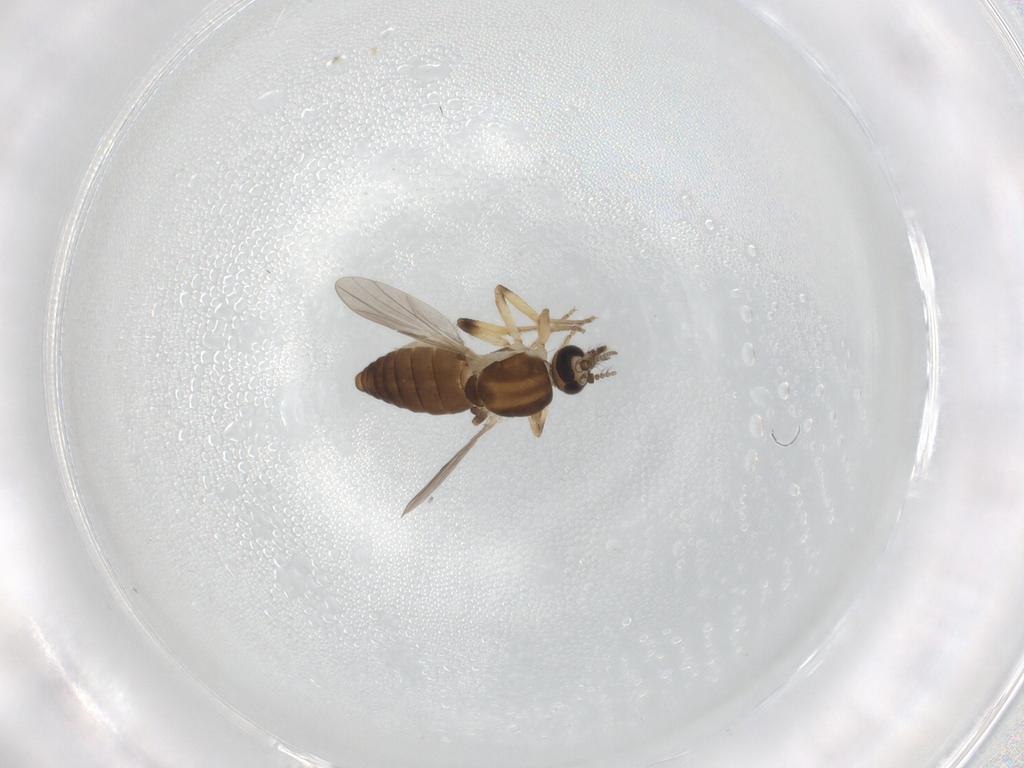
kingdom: Animalia
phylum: Arthropoda
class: Insecta
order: Diptera
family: Ceratopogonidae
